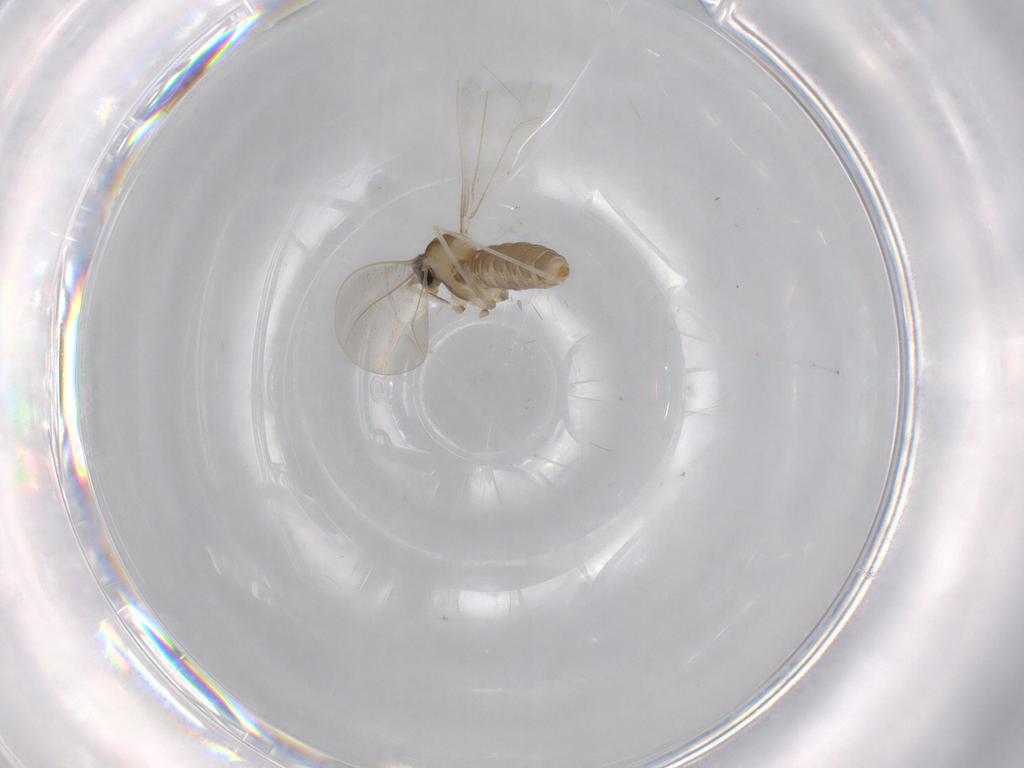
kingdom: Animalia
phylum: Arthropoda
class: Insecta
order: Diptera
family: Cecidomyiidae
